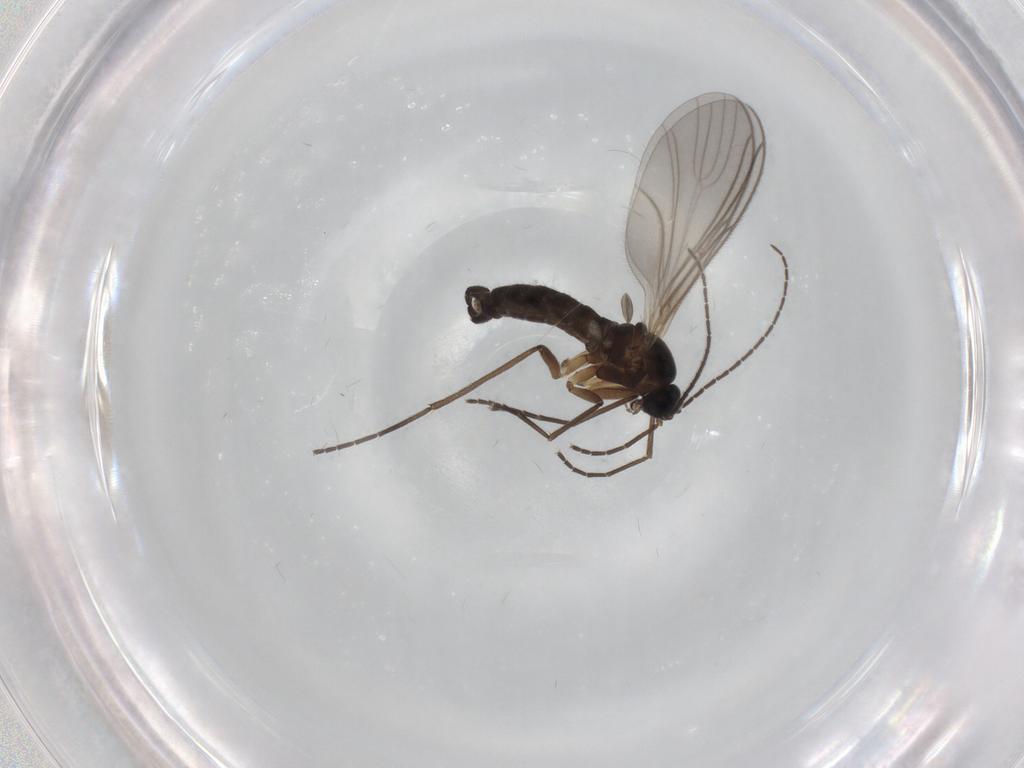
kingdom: Animalia
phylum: Arthropoda
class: Insecta
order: Diptera
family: Sciaridae
